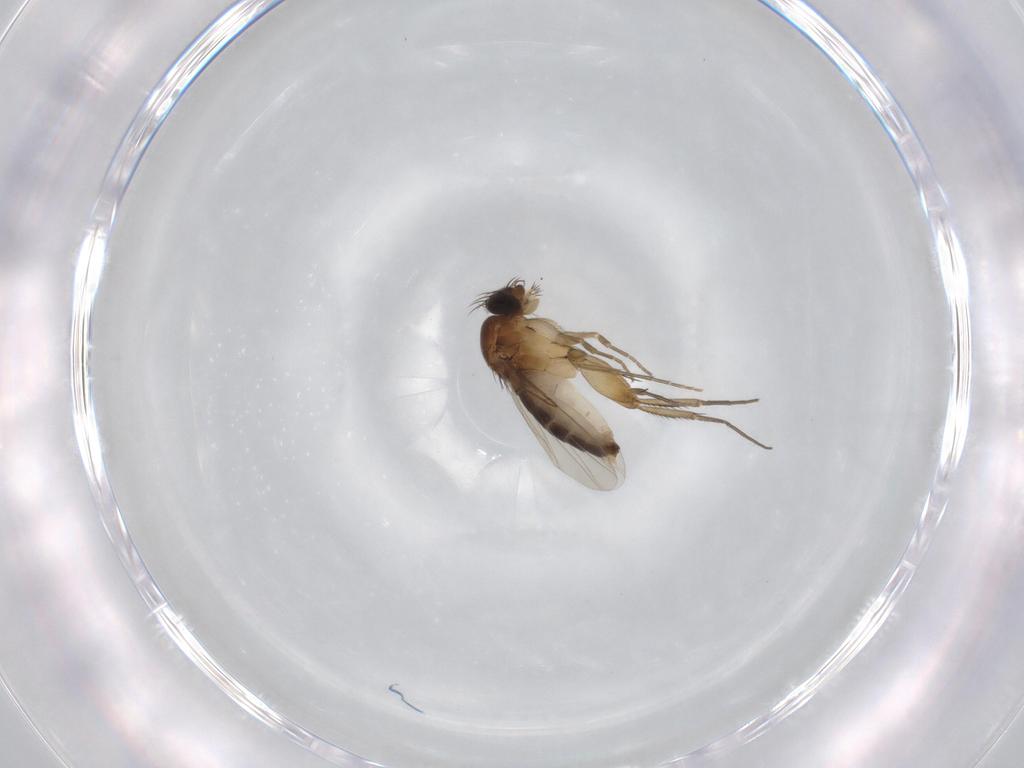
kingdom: Animalia
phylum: Arthropoda
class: Insecta
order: Diptera
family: Phoridae
